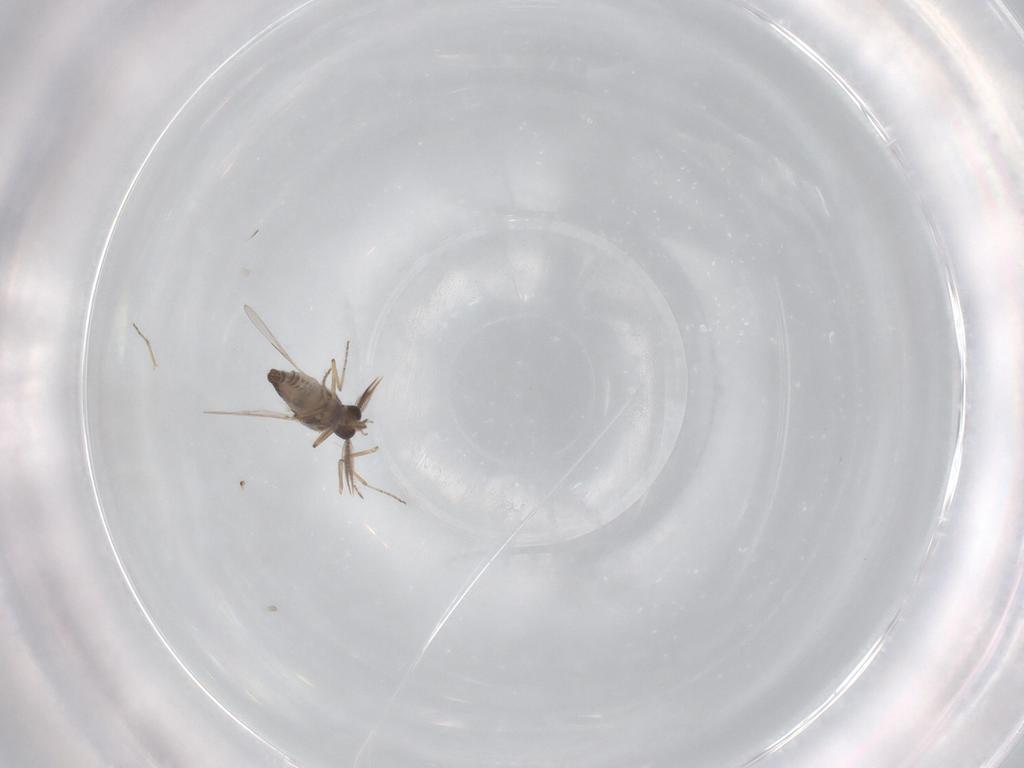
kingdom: Animalia
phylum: Arthropoda
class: Insecta
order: Diptera
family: Ceratopogonidae
